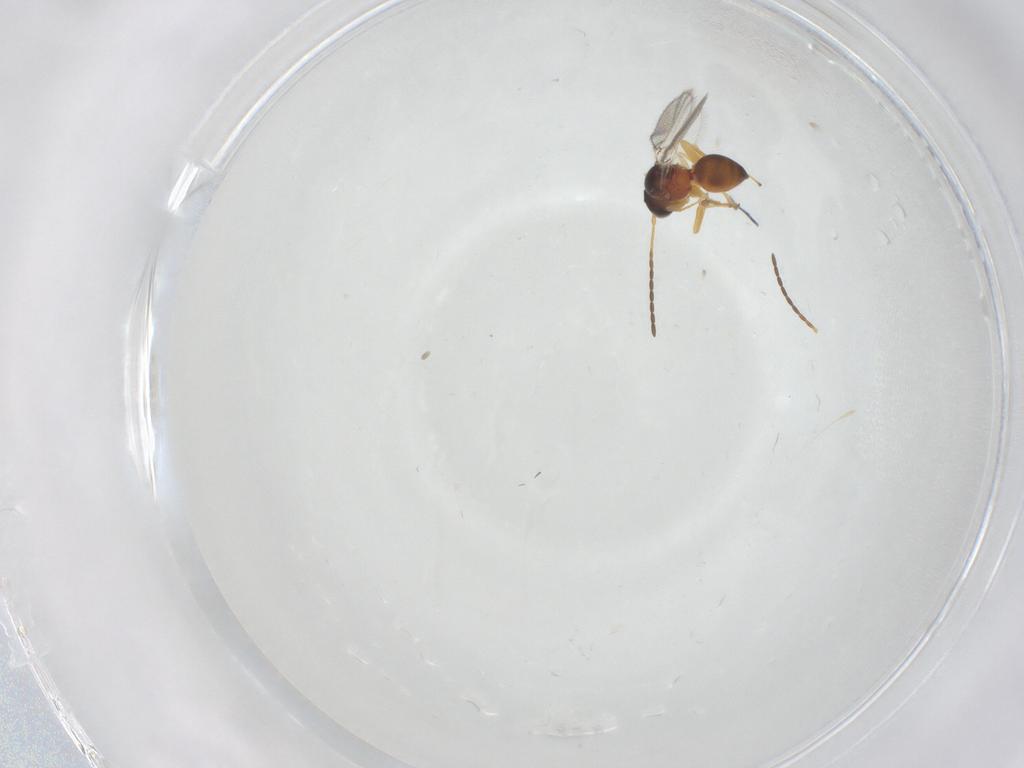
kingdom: Animalia
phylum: Arthropoda
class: Insecta
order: Hymenoptera
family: Figitidae
